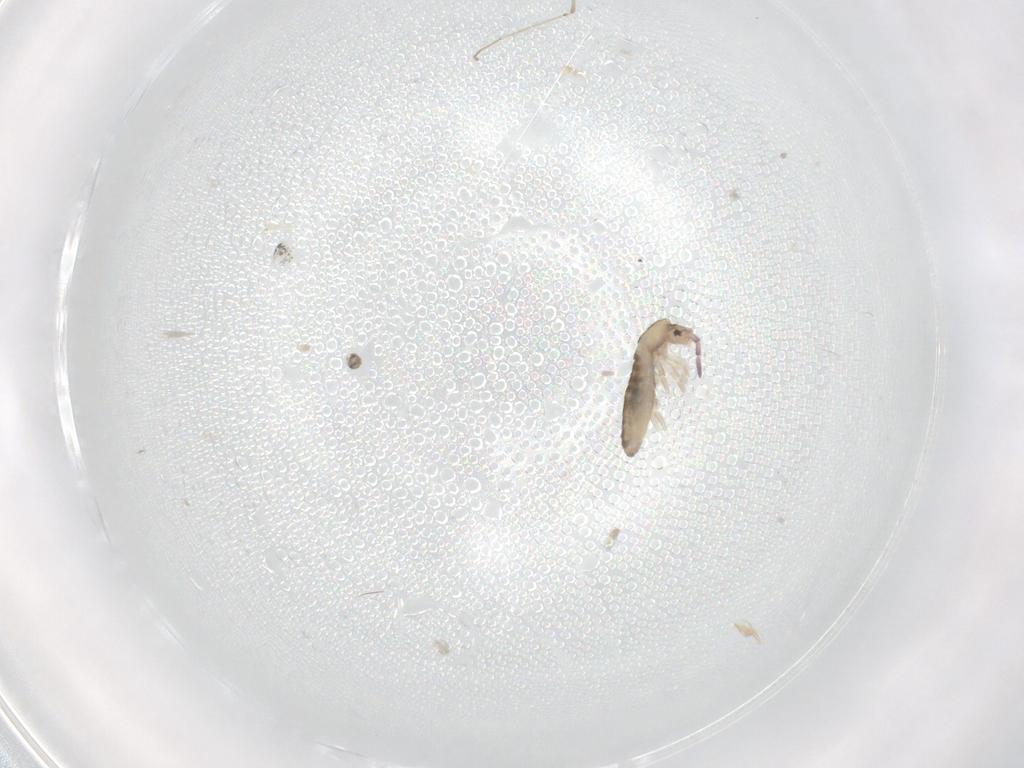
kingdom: Animalia
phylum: Arthropoda
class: Collembola
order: Entomobryomorpha
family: Entomobryidae
